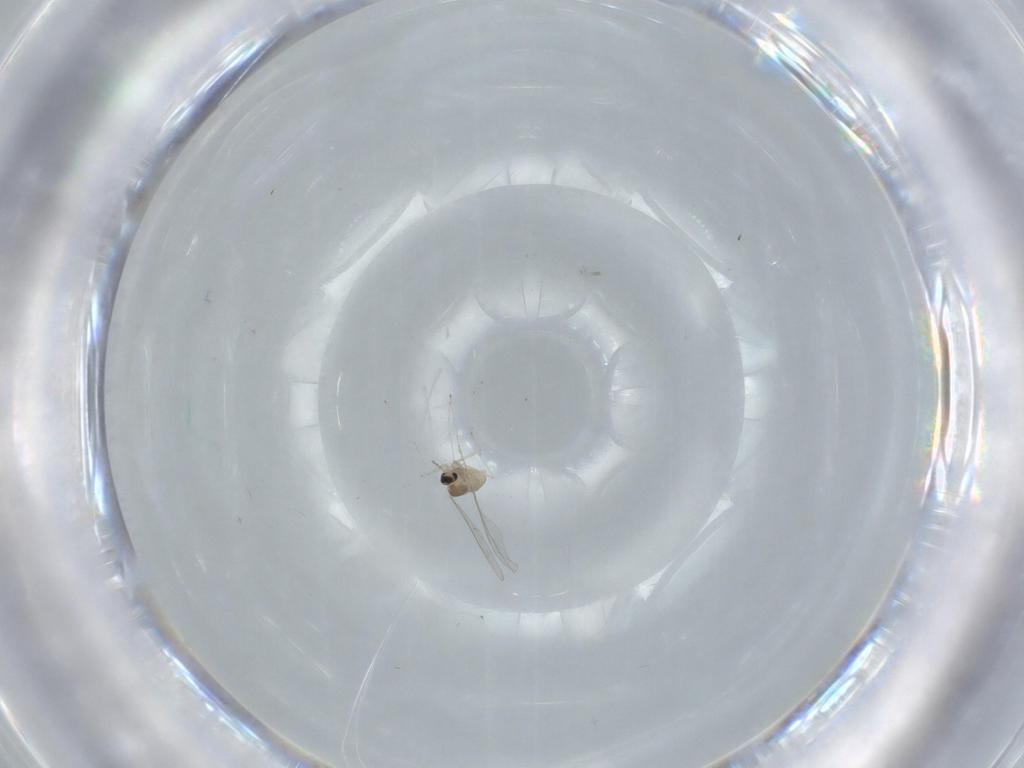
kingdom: Animalia
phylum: Arthropoda
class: Insecta
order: Diptera
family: Cecidomyiidae
